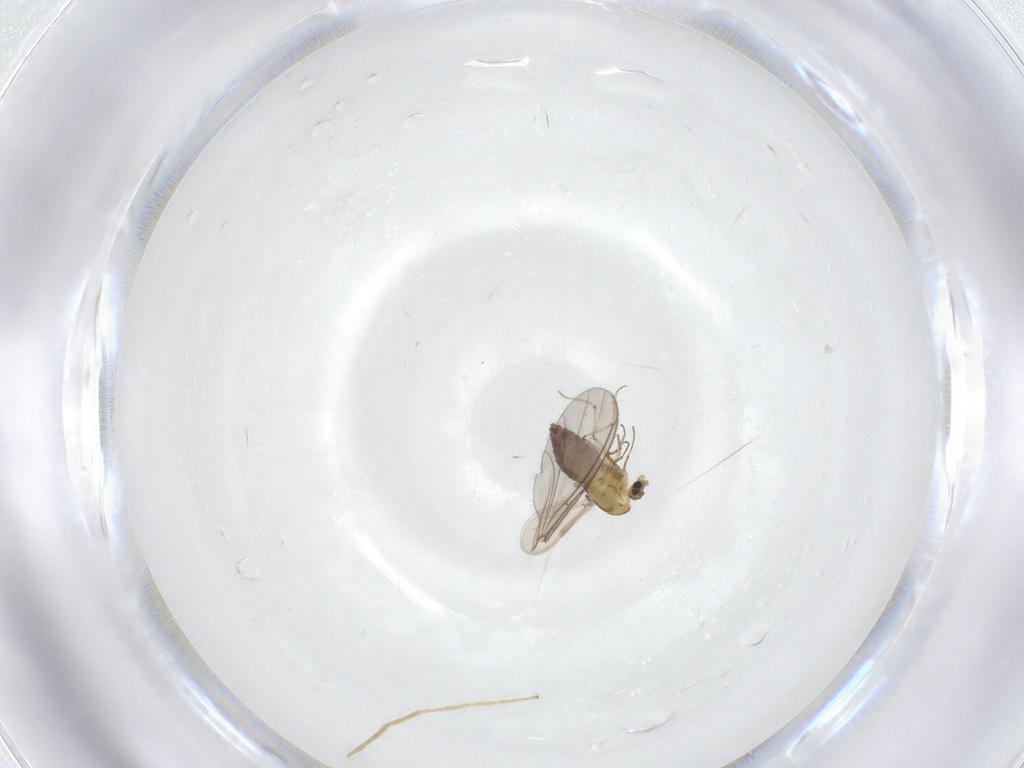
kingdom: Animalia
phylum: Arthropoda
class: Insecta
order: Diptera
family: Chironomidae
